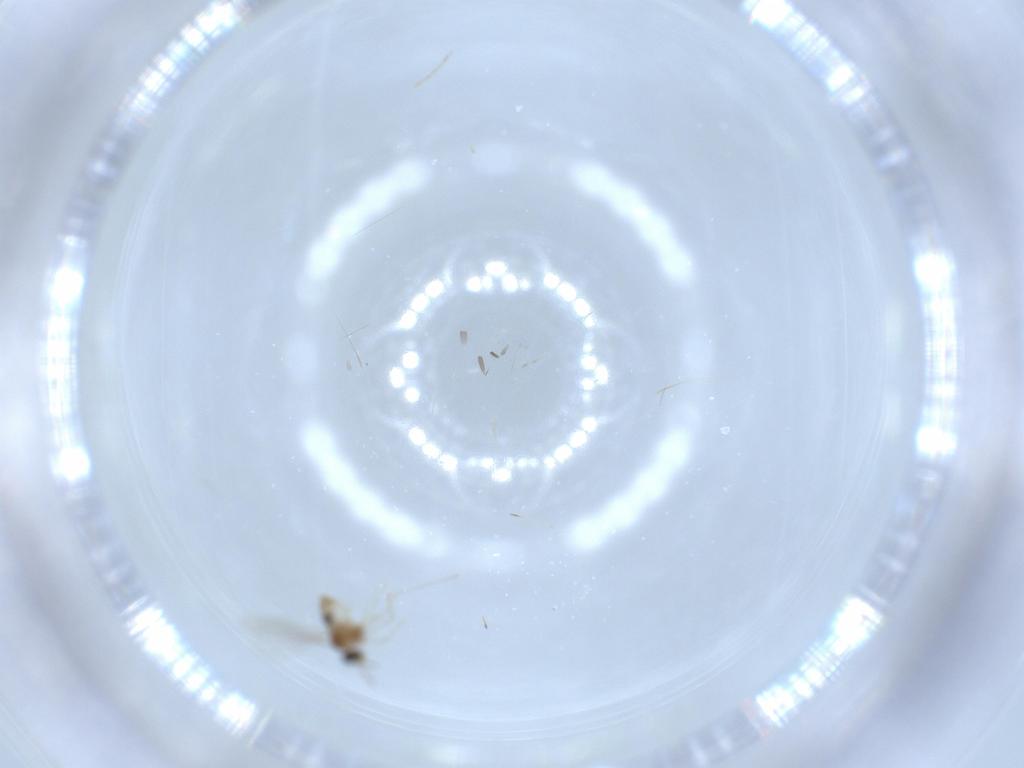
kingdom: Animalia
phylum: Arthropoda
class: Insecta
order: Diptera
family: Cecidomyiidae
